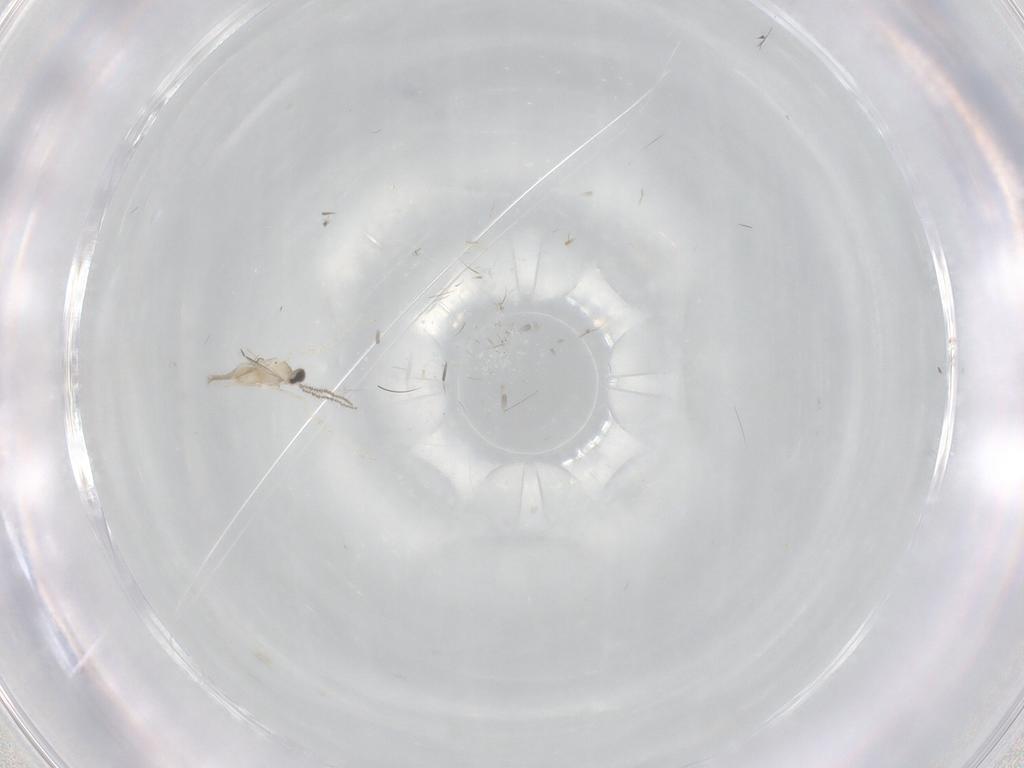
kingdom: Animalia
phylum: Arthropoda
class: Insecta
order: Diptera
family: Cecidomyiidae
